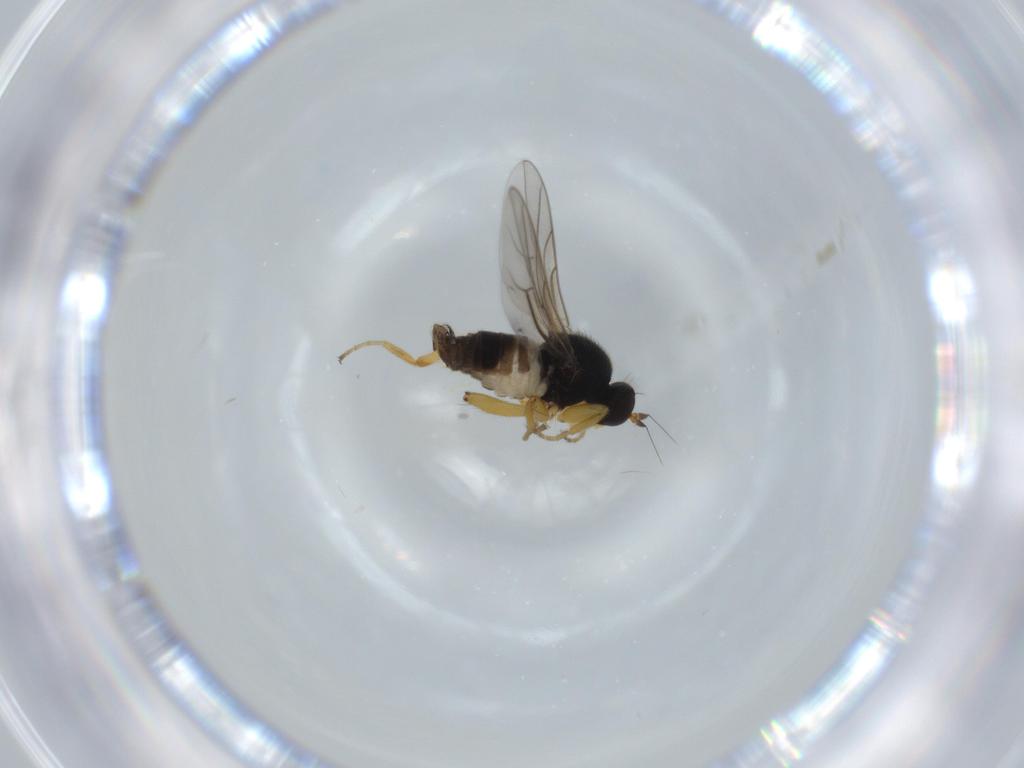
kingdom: Animalia
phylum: Arthropoda
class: Insecta
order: Diptera
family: Hybotidae
